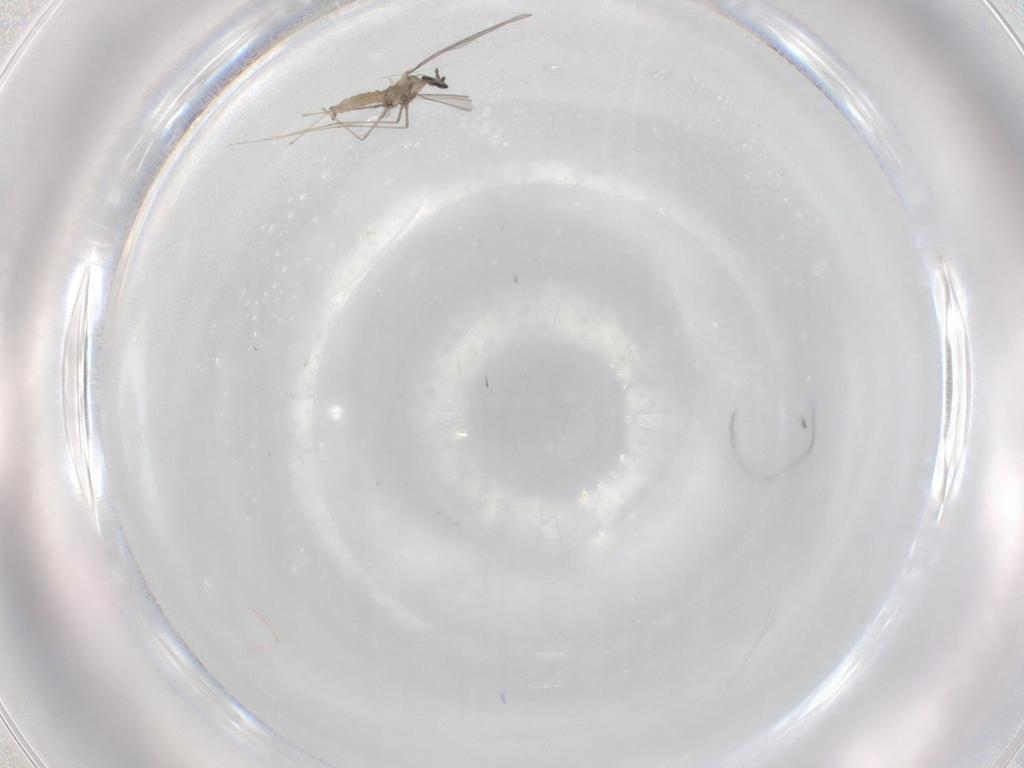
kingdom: Animalia
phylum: Arthropoda
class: Insecta
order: Diptera
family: Cecidomyiidae
